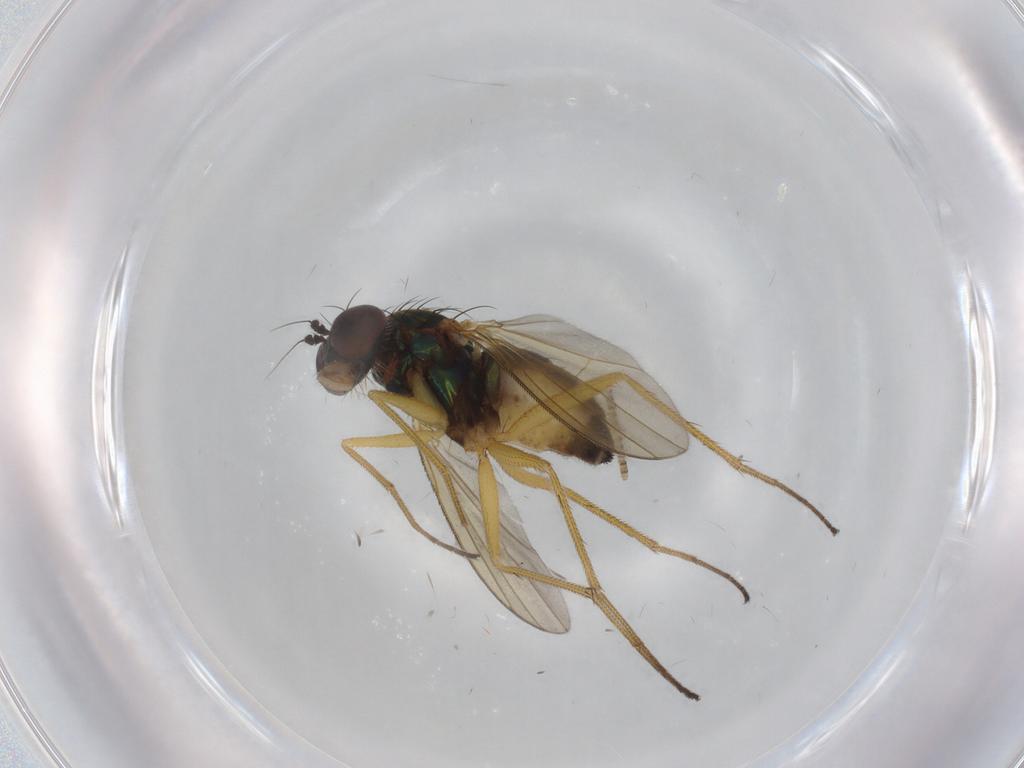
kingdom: Animalia
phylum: Arthropoda
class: Insecta
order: Diptera
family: Dolichopodidae
